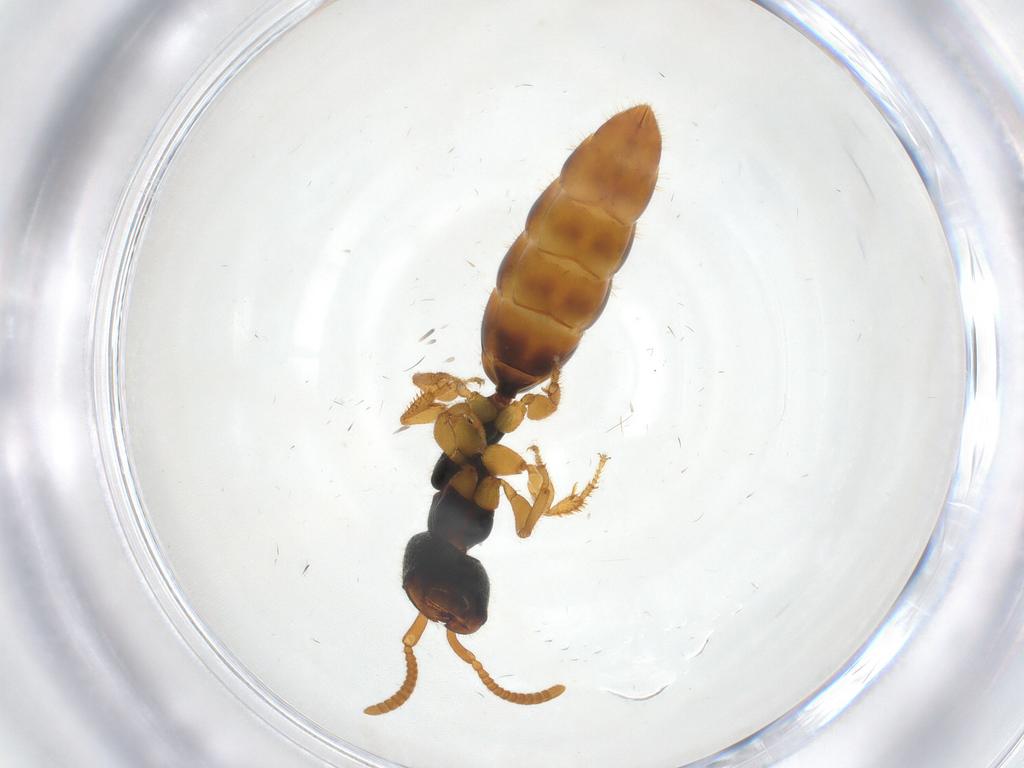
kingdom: Animalia
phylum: Arthropoda
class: Insecta
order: Hymenoptera
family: Bethylidae
